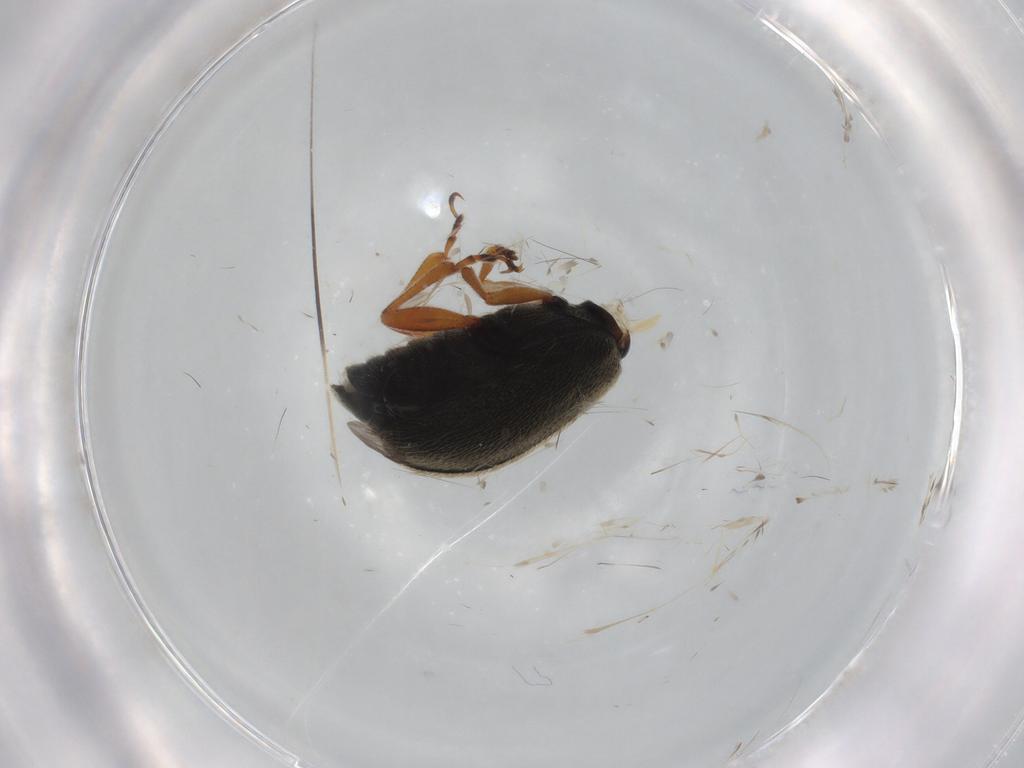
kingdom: Animalia
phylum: Arthropoda
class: Insecta
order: Coleoptera
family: Chrysomelidae
